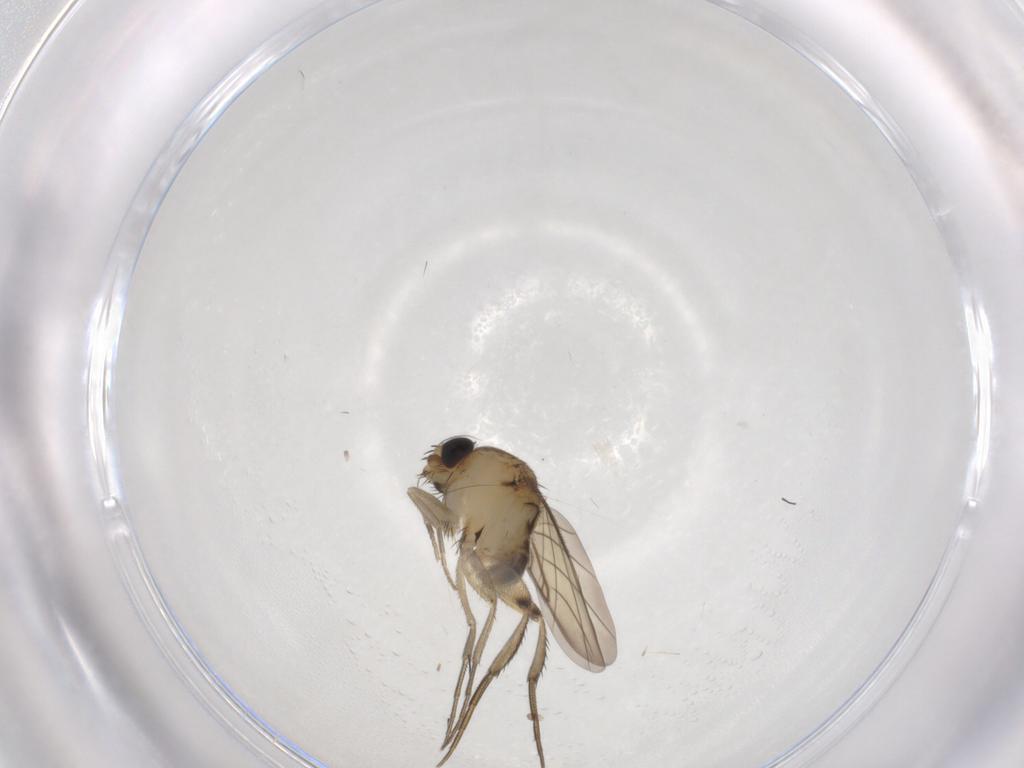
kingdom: Animalia
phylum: Arthropoda
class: Insecta
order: Diptera
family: Phoridae
